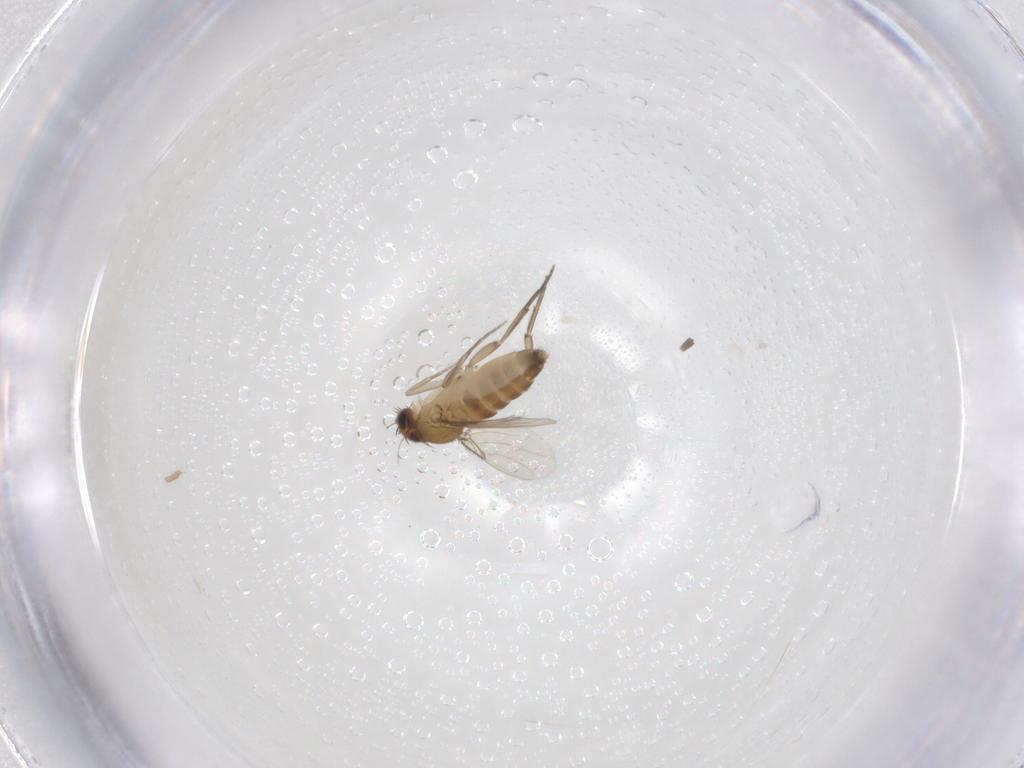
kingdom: Animalia
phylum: Arthropoda
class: Insecta
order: Diptera
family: Phoridae
